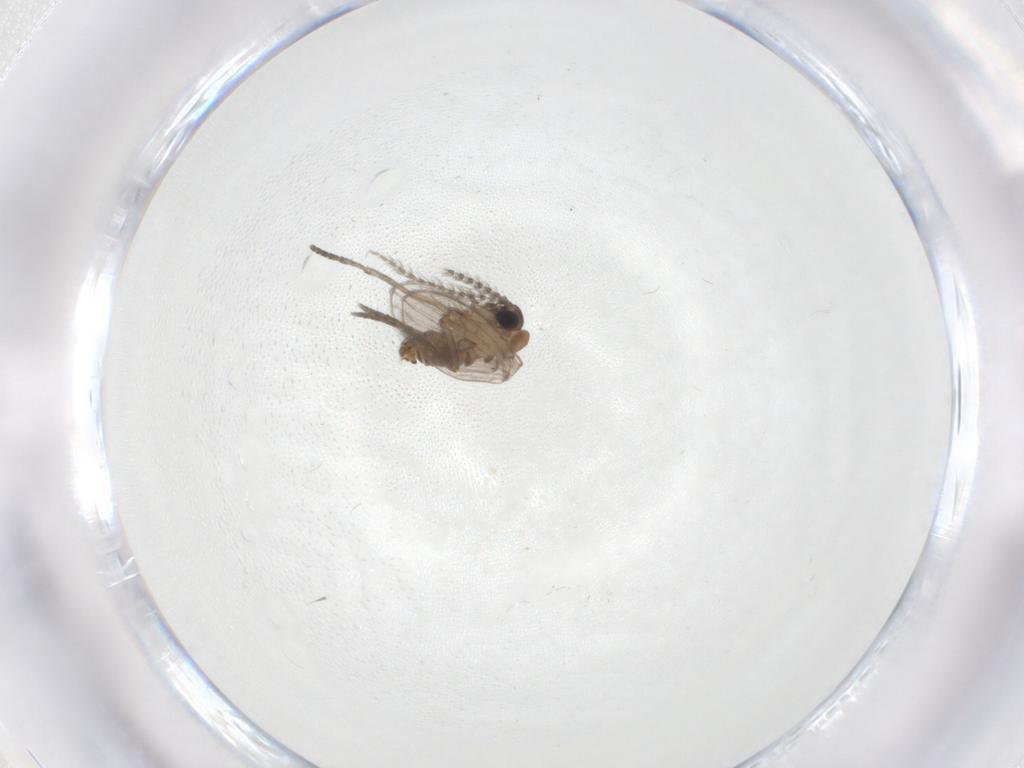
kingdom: Animalia
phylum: Arthropoda
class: Insecta
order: Diptera
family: Psychodidae
